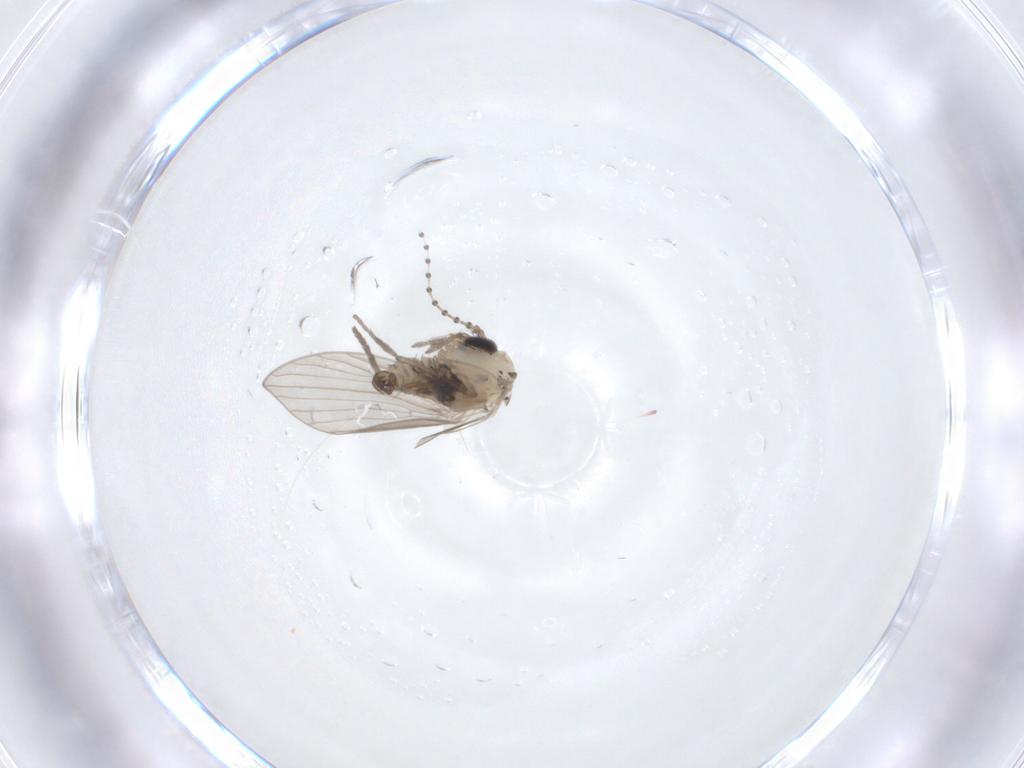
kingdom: Animalia
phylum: Arthropoda
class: Insecta
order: Diptera
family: Psychodidae
